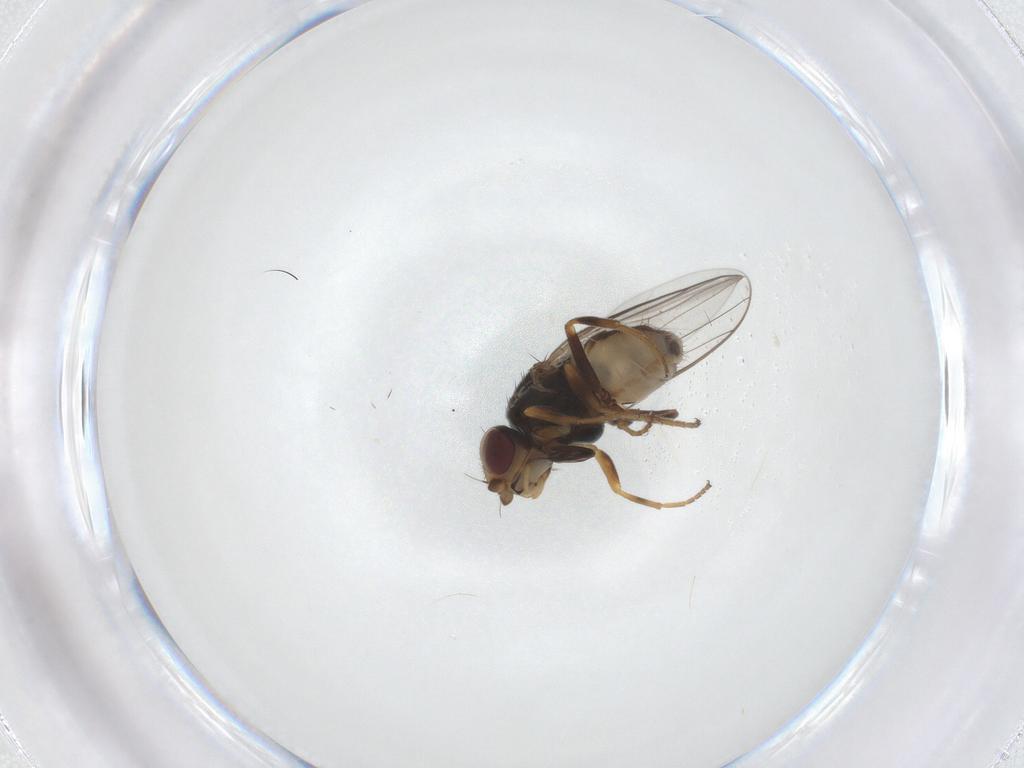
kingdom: Animalia
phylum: Arthropoda
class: Insecta
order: Diptera
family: Chloropidae
